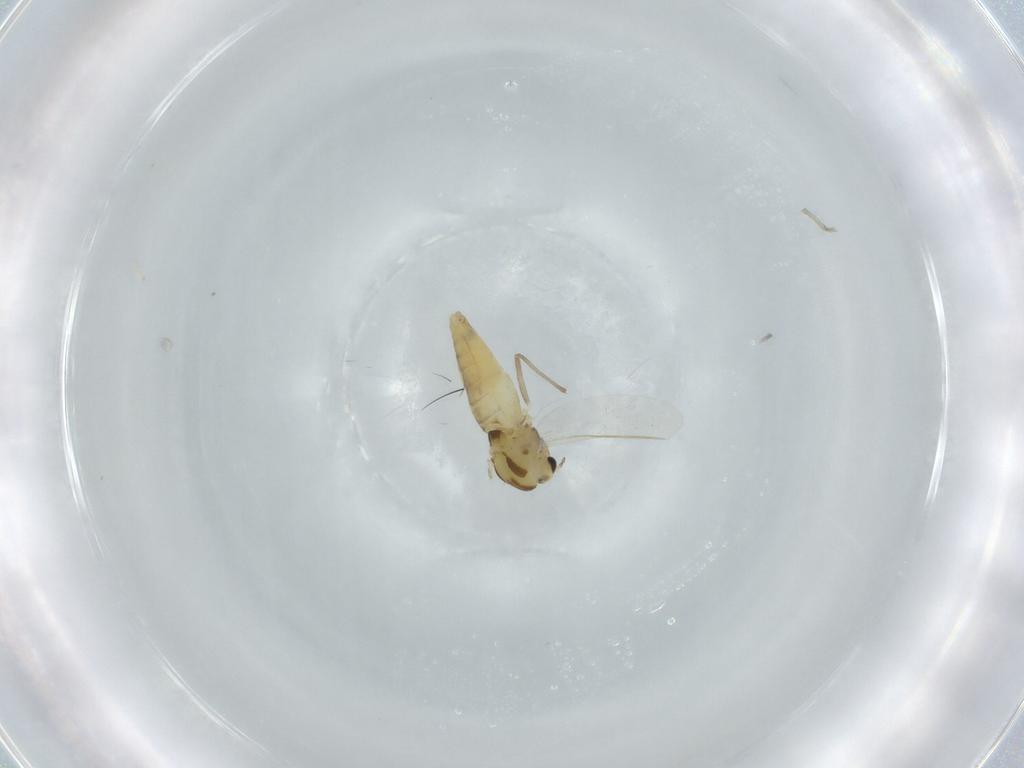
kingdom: Animalia
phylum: Arthropoda
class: Insecta
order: Diptera
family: Chironomidae
